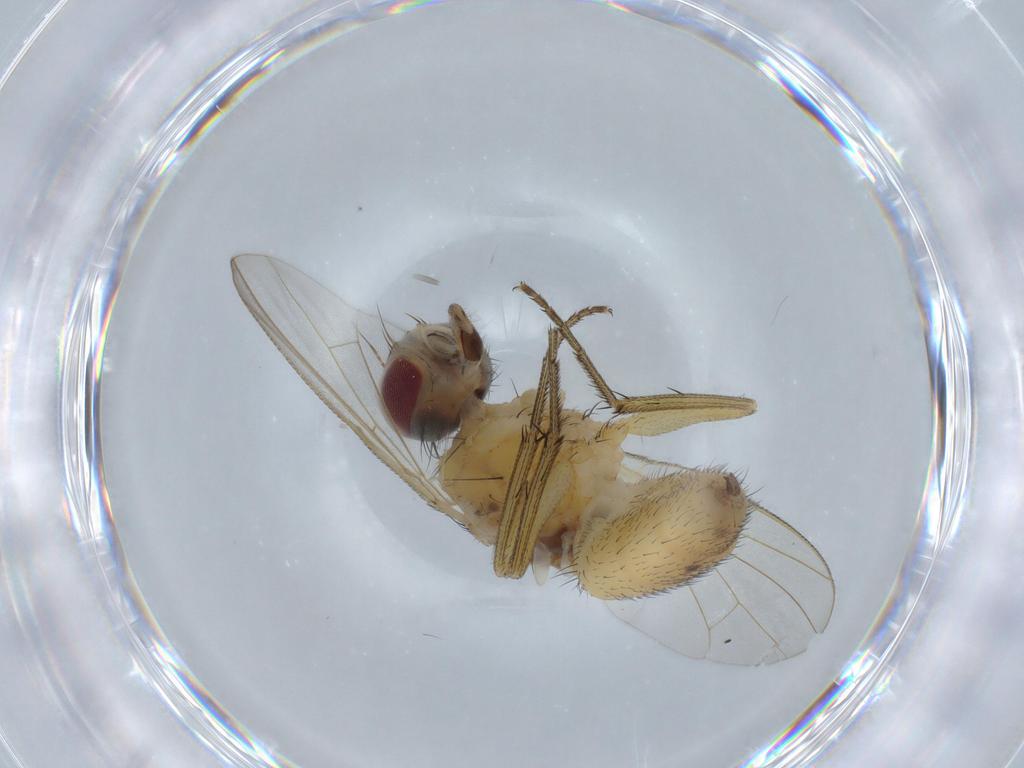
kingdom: Animalia
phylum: Arthropoda
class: Insecta
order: Diptera
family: Muscidae
